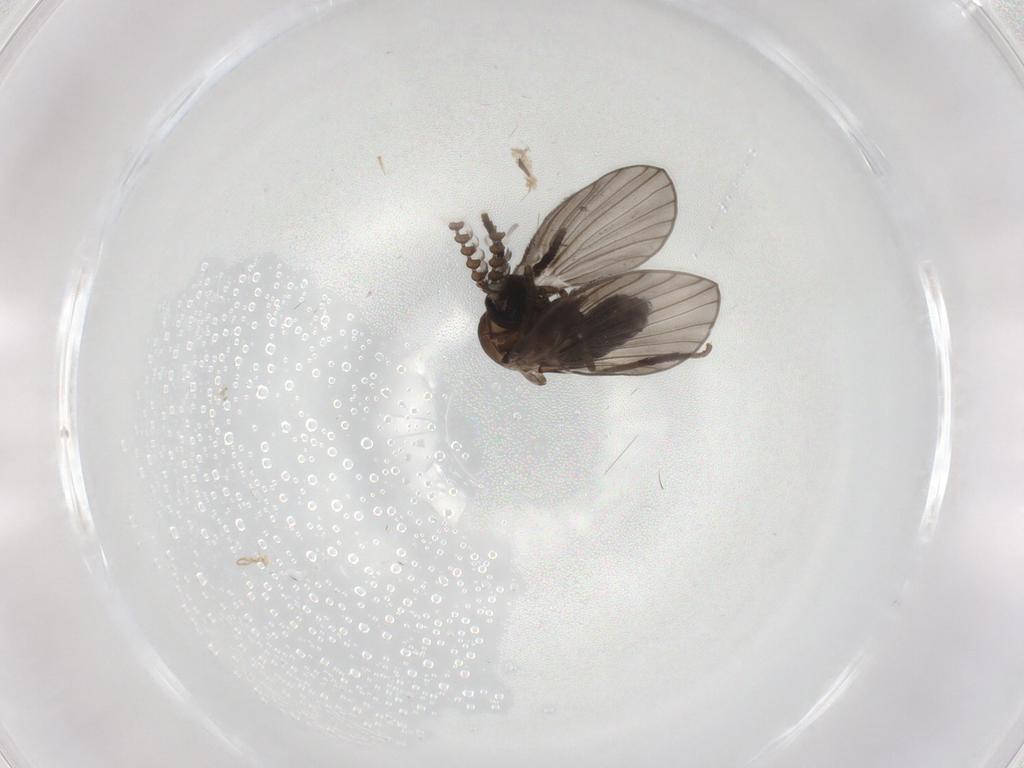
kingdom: Animalia
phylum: Arthropoda
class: Insecta
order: Diptera
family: Psychodidae
